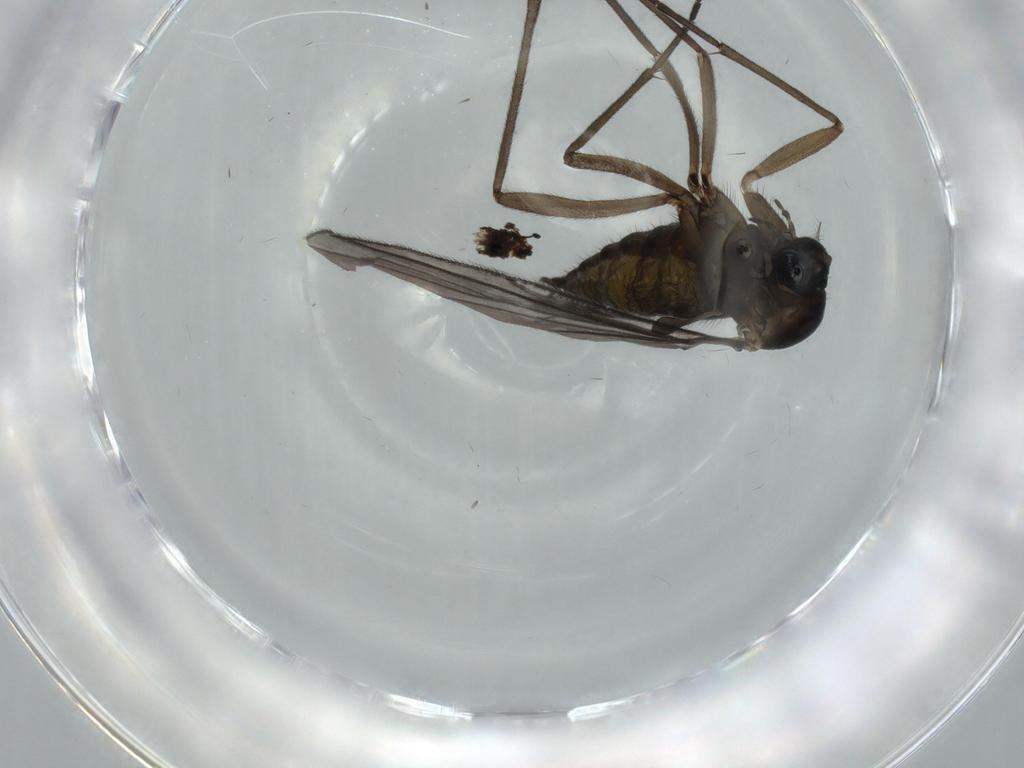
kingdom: Animalia
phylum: Arthropoda
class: Insecta
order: Diptera
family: Sciaridae
